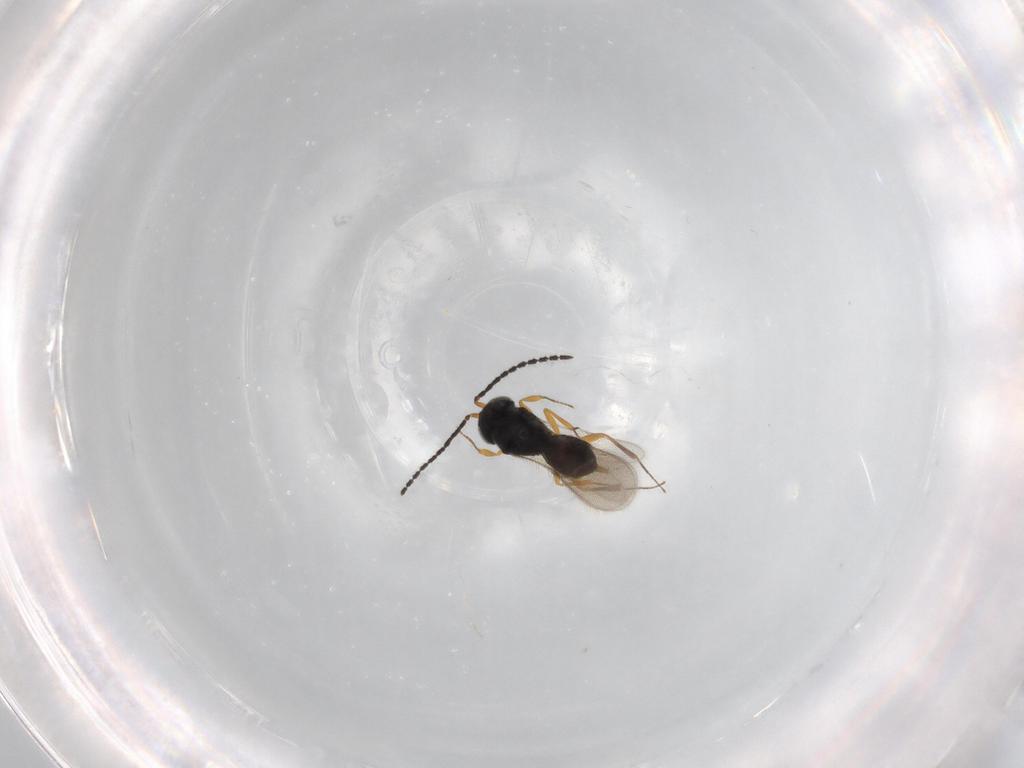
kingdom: Animalia
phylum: Arthropoda
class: Insecta
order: Hymenoptera
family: Scelionidae
